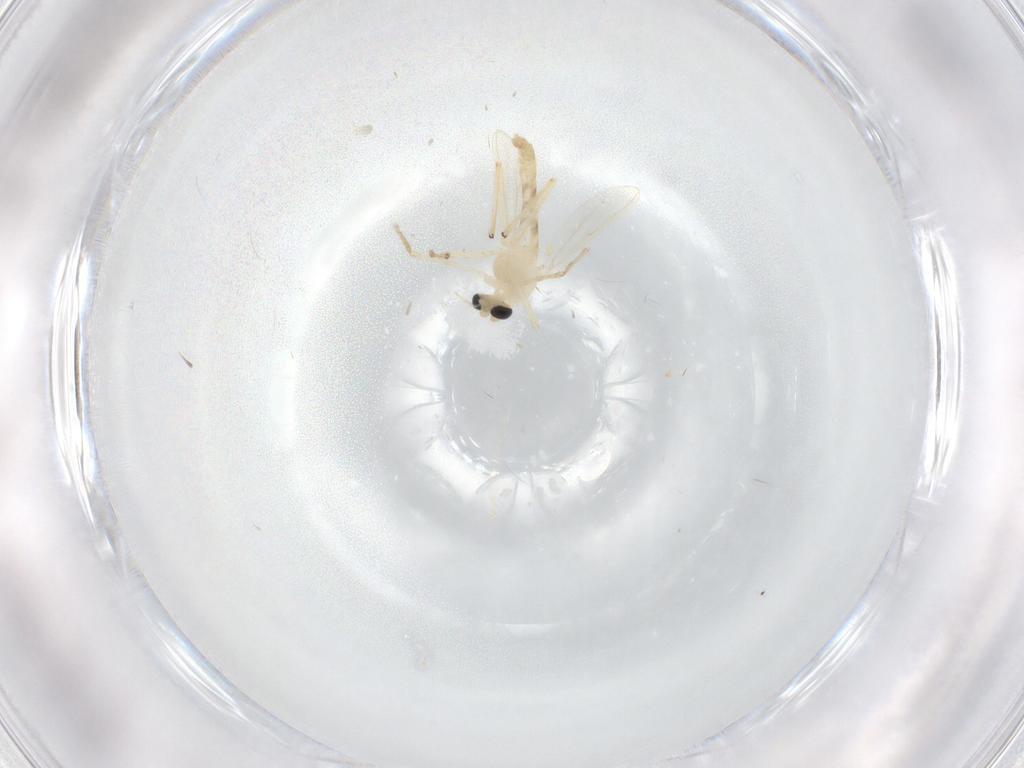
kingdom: Animalia
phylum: Arthropoda
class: Insecta
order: Diptera
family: Chironomidae
